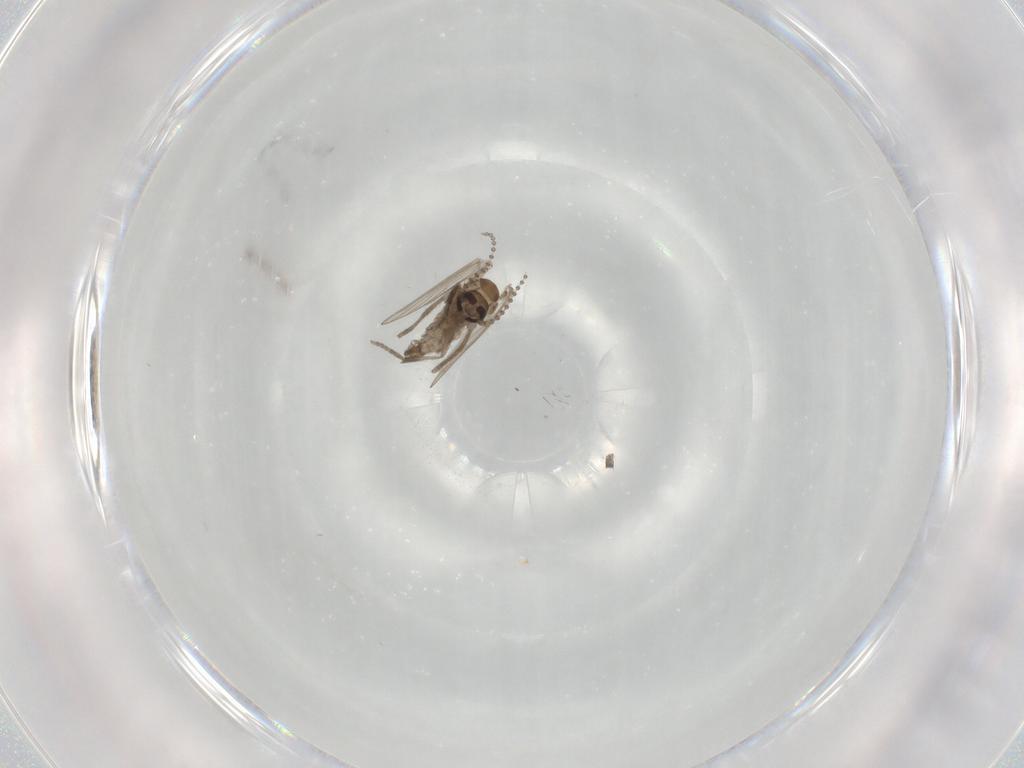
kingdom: Animalia
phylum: Arthropoda
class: Insecta
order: Diptera
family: Psychodidae
